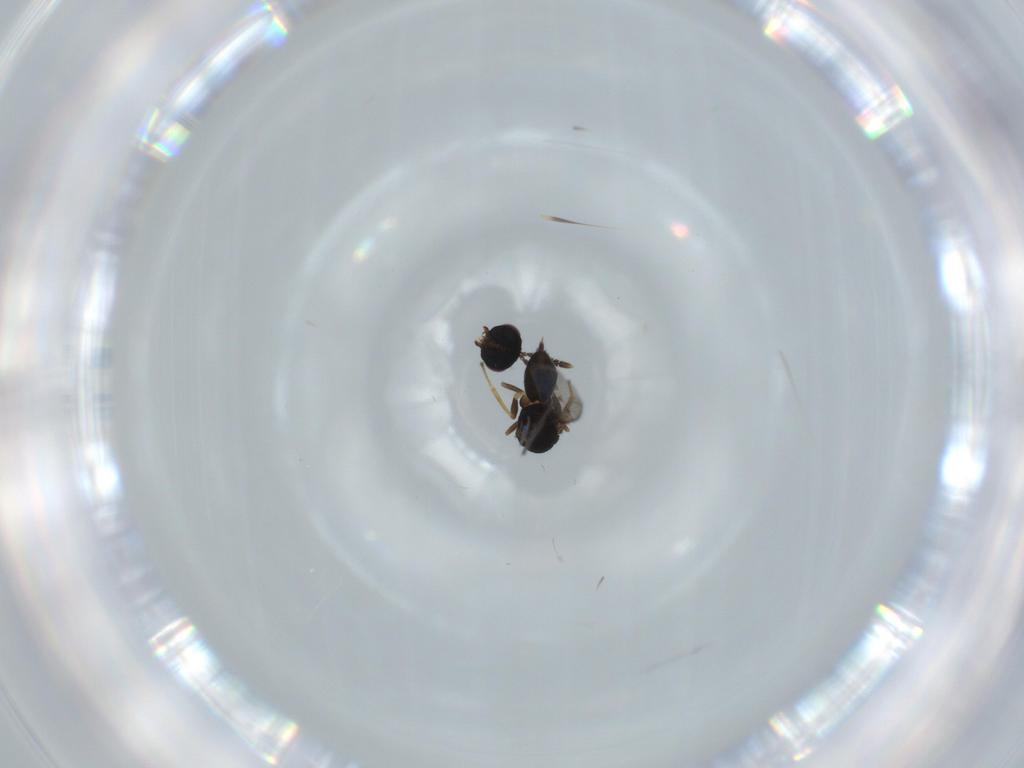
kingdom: Animalia
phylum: Arthropoda
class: Insecta
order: Hymenoptera
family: Pirenidae
